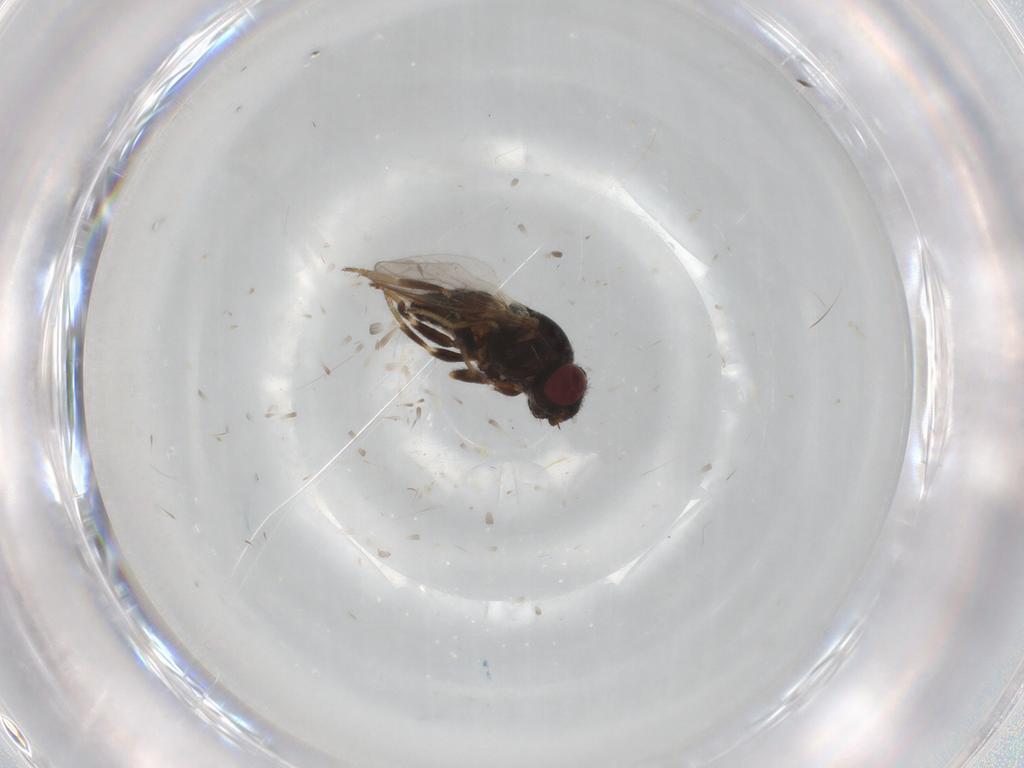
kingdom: Animalia
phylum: Arthropoda
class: Insecta
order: Diptera
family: Chloropidae
